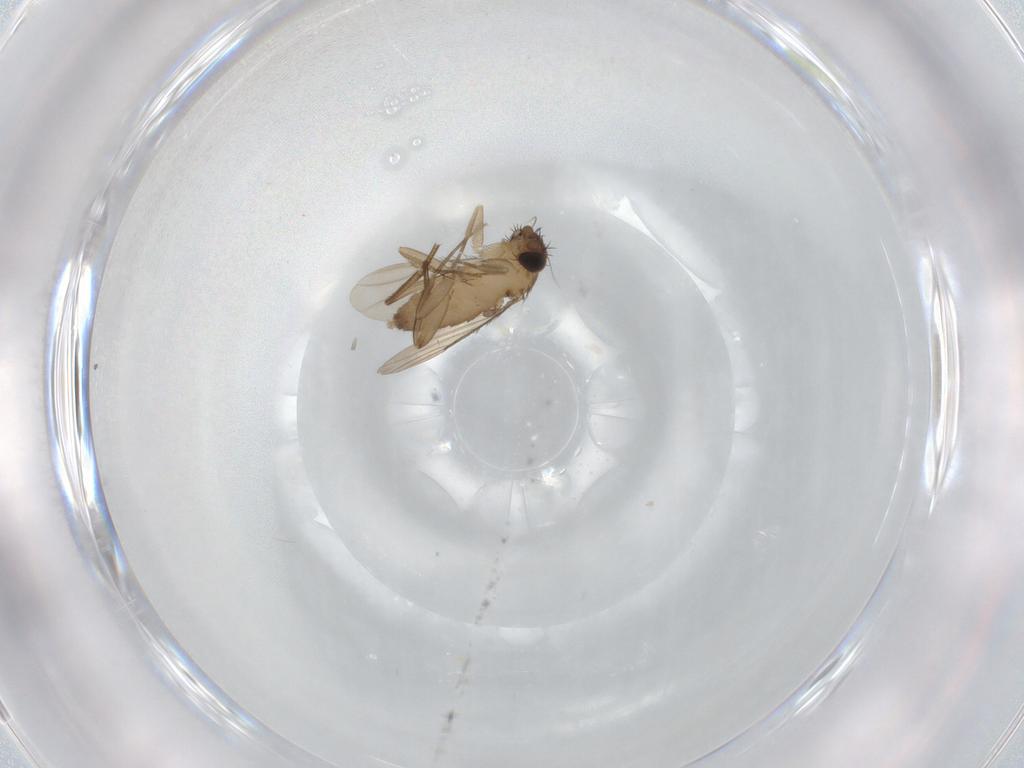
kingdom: Animalia
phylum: Arthropoda
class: Insecta
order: Diptera
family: Phoridae
